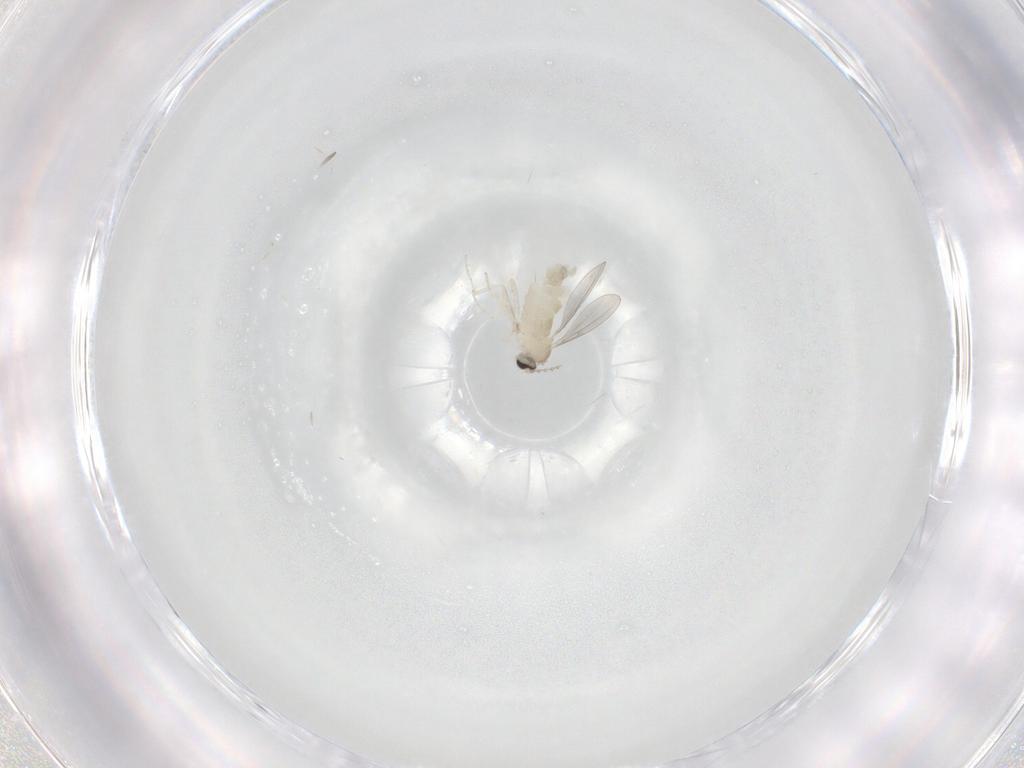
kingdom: Animalia
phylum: Arthropoda
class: Insecta
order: Diptera
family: Cecidomyiidae
